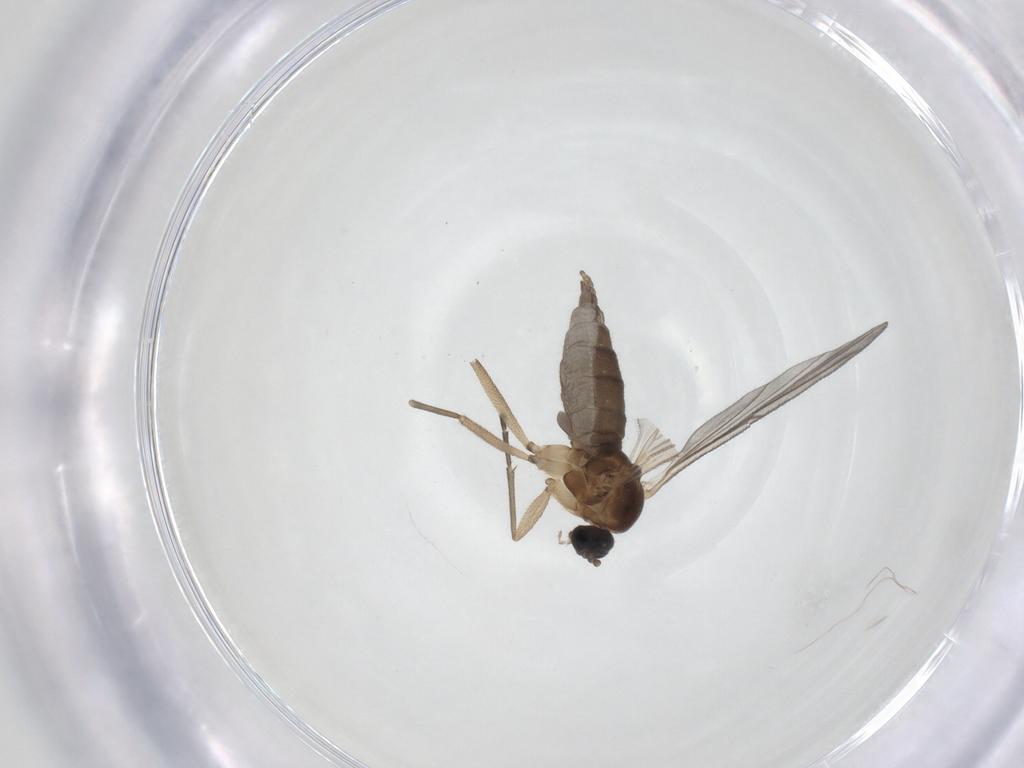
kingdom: Animalia
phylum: Arthropoda
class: Insecta
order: Diptera
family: Sciaridae
